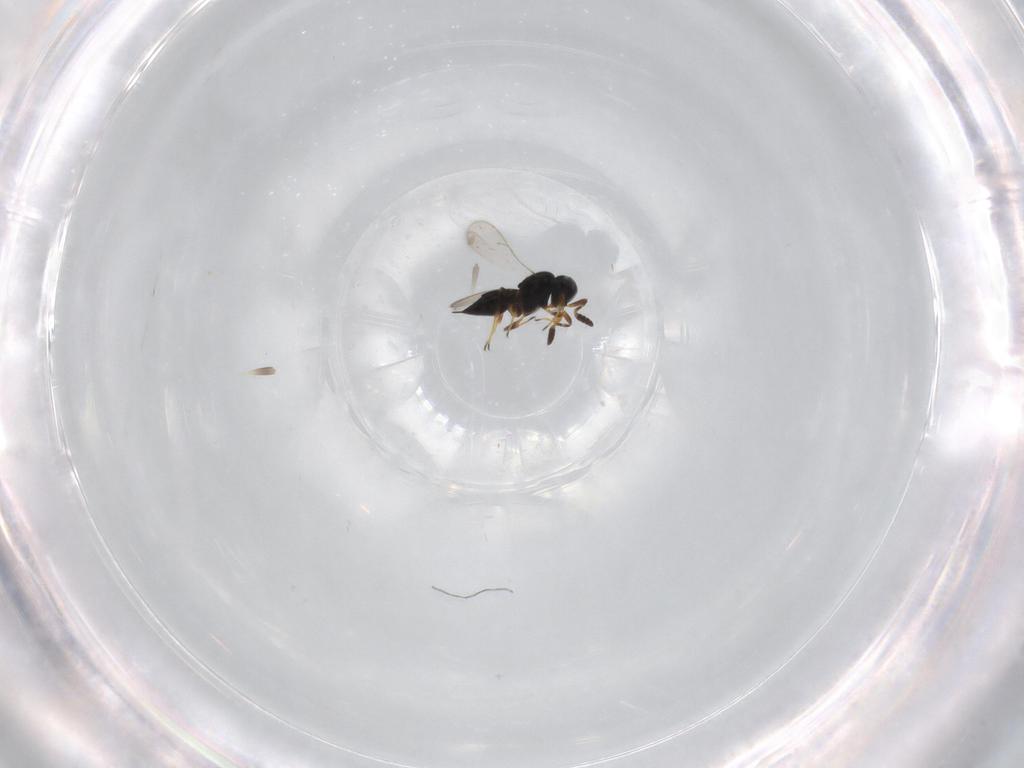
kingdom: Animalia
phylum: Arthropoda
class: Insecta
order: Hymenoptera
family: Scelionidae
